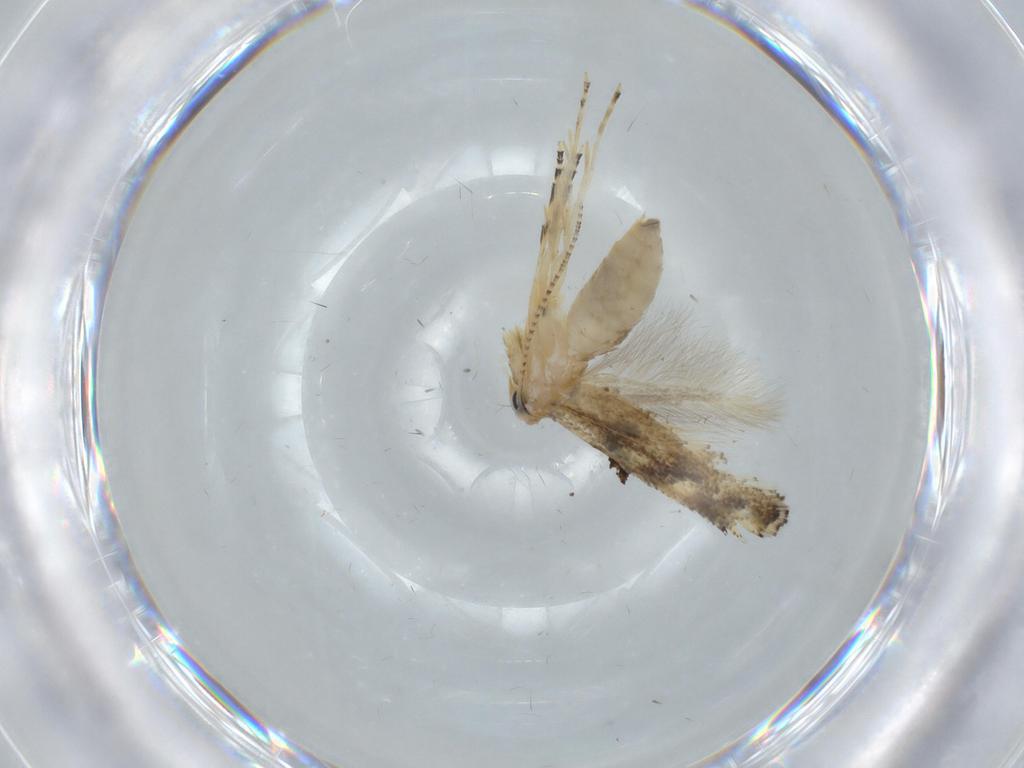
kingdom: Animalia
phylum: Arthropoda
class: Insecta
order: Lepidoptera
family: Bucculatricidae
